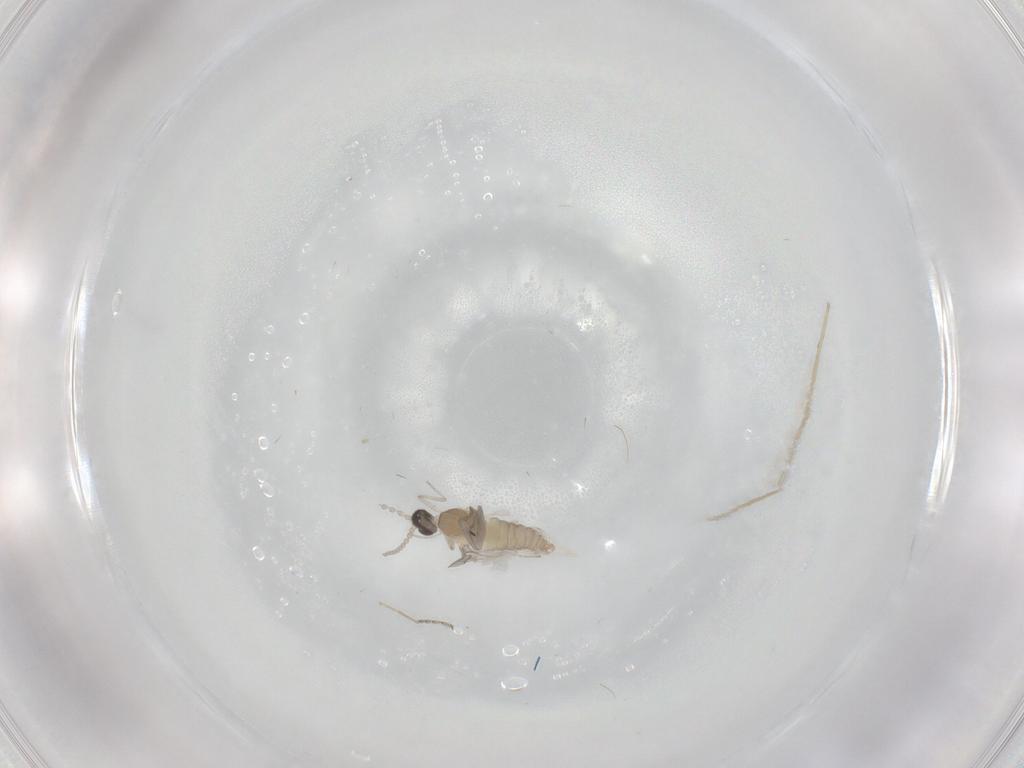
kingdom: Animalia
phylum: Arthropoda
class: Insecta
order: Diptera
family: Cecidomyiidae
